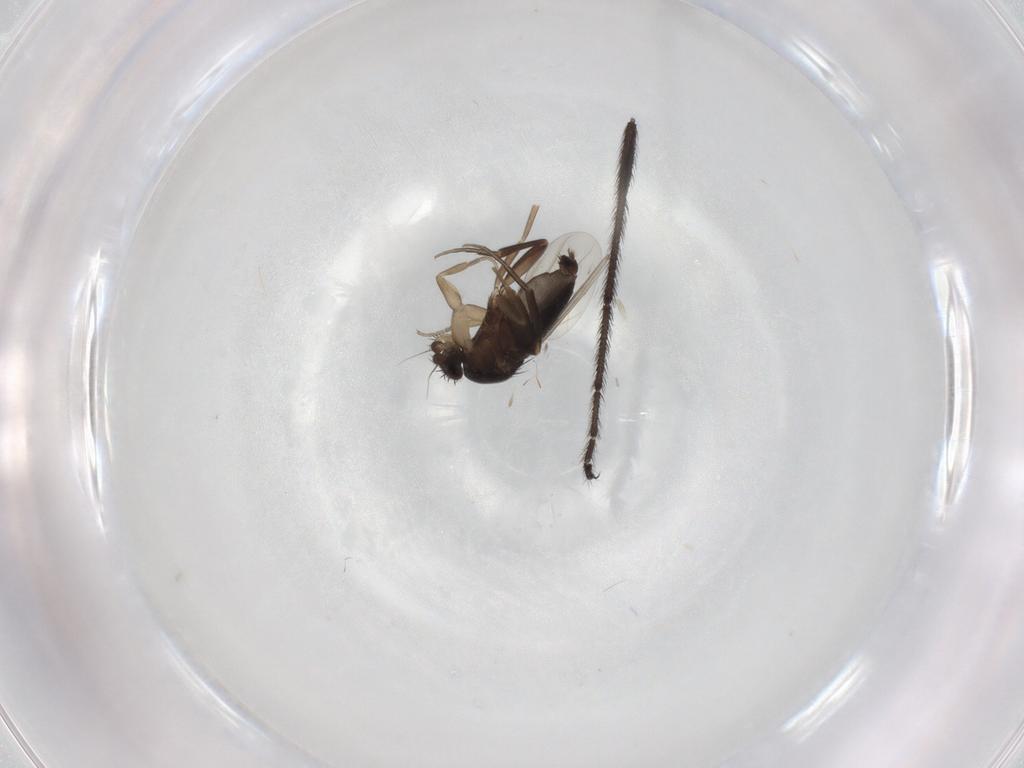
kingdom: Animalia
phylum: Arthropoda
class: Insecta
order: Diptera
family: Phoridae
